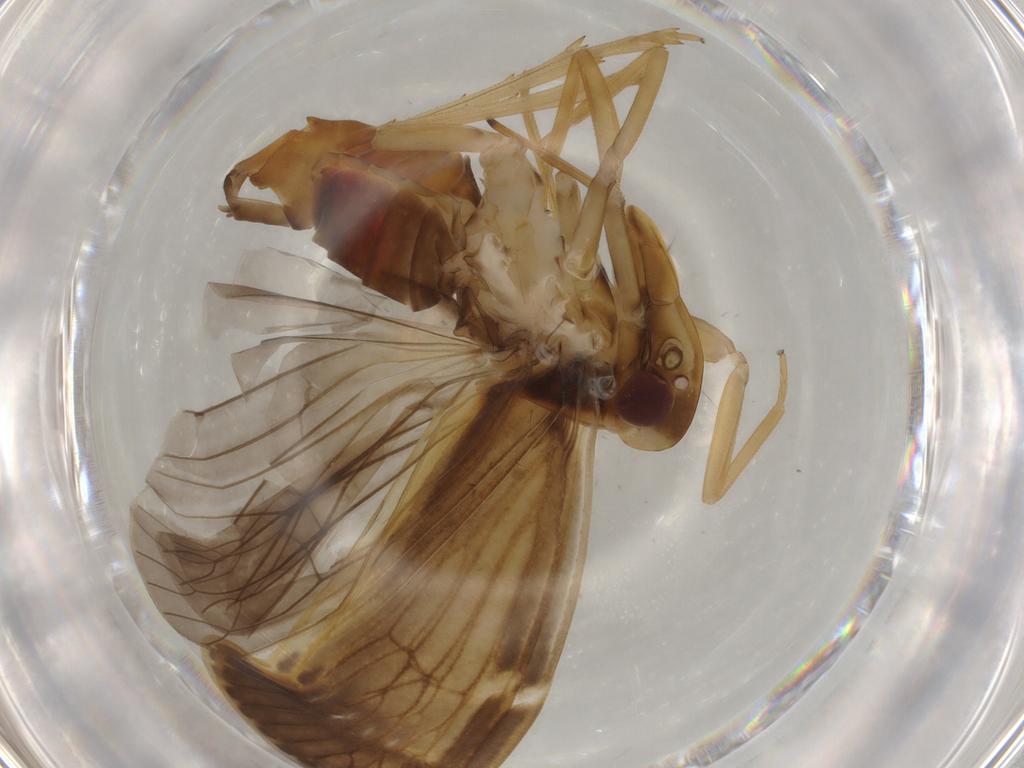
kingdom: Animalia
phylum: Arthropoda
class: Insecta
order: Hemiptera
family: Cixiidae
